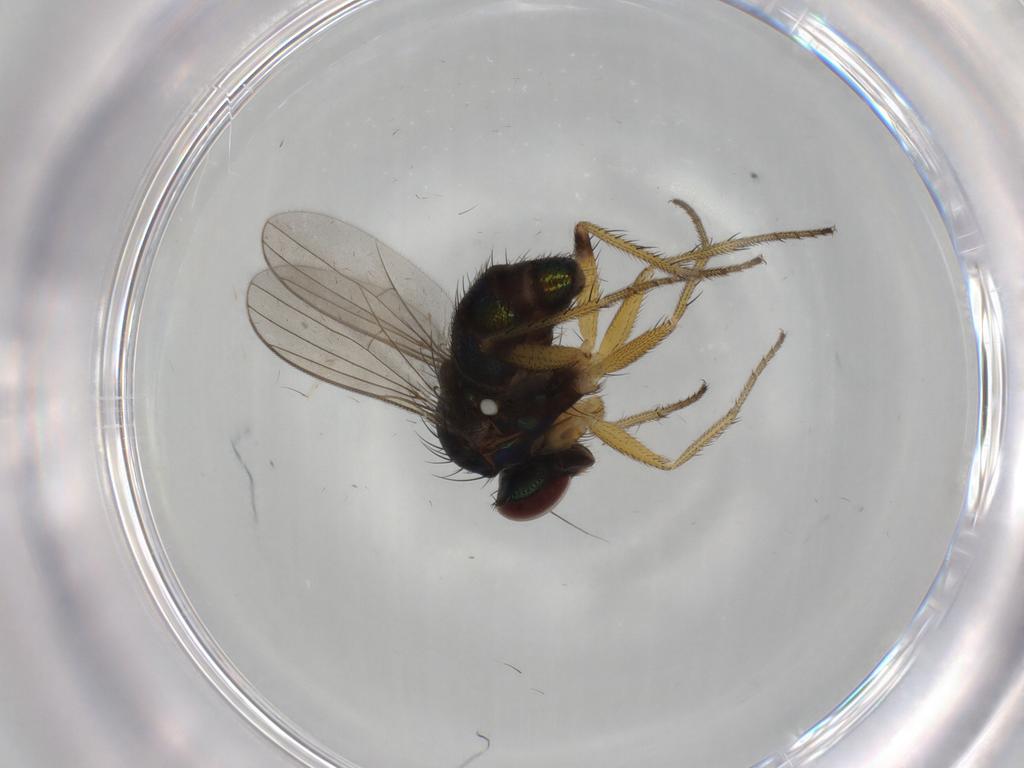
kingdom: Animalia
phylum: Arthropoda
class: Insecta
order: Diptera
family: Dolichopodidae
